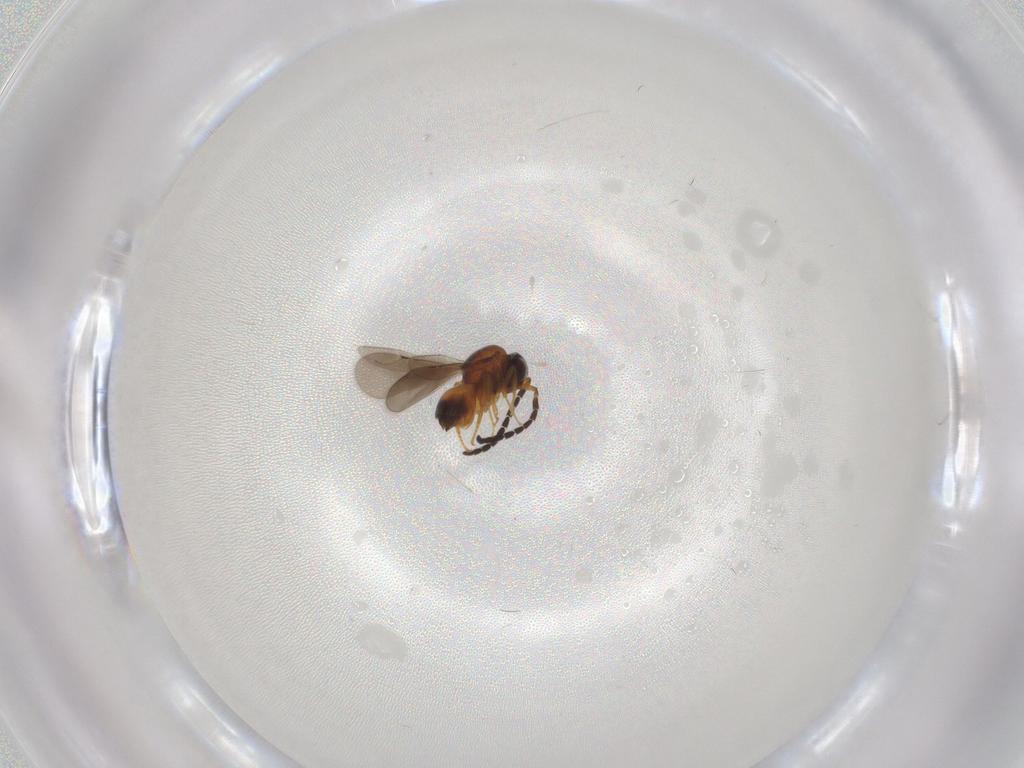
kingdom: Animalia
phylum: Arthropoda
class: Insecta
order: Hymenoptera
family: Ceraphronidae
